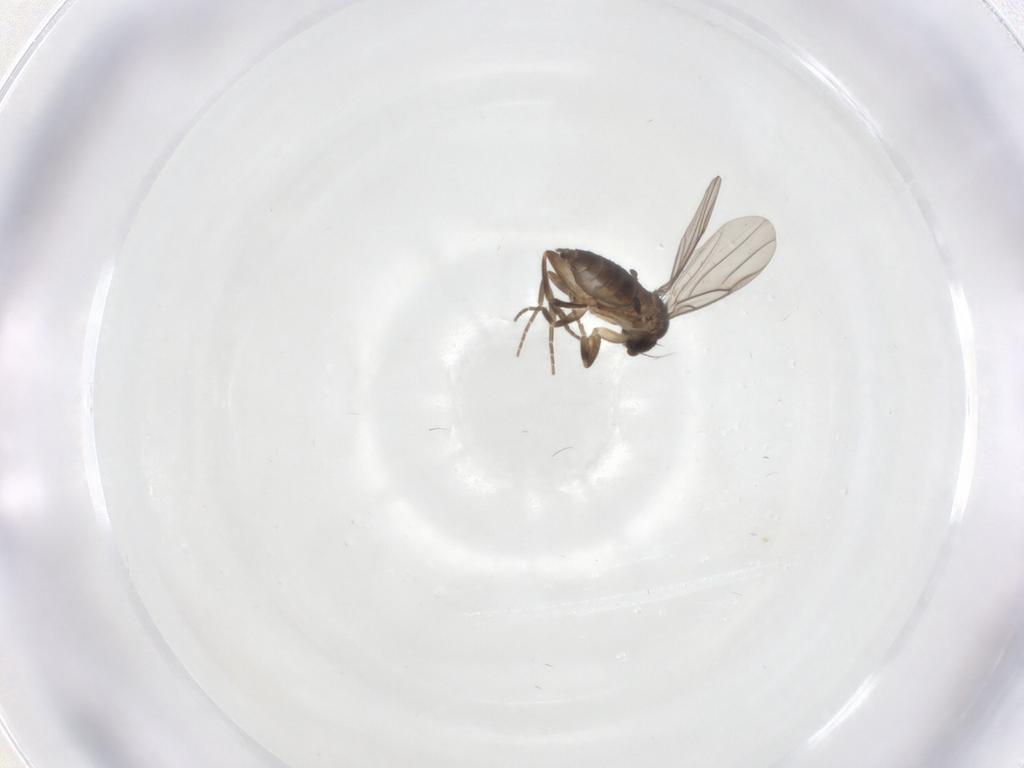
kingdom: Animalia
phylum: Arthropoda
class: Insecta
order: Diptera
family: Phoridae
